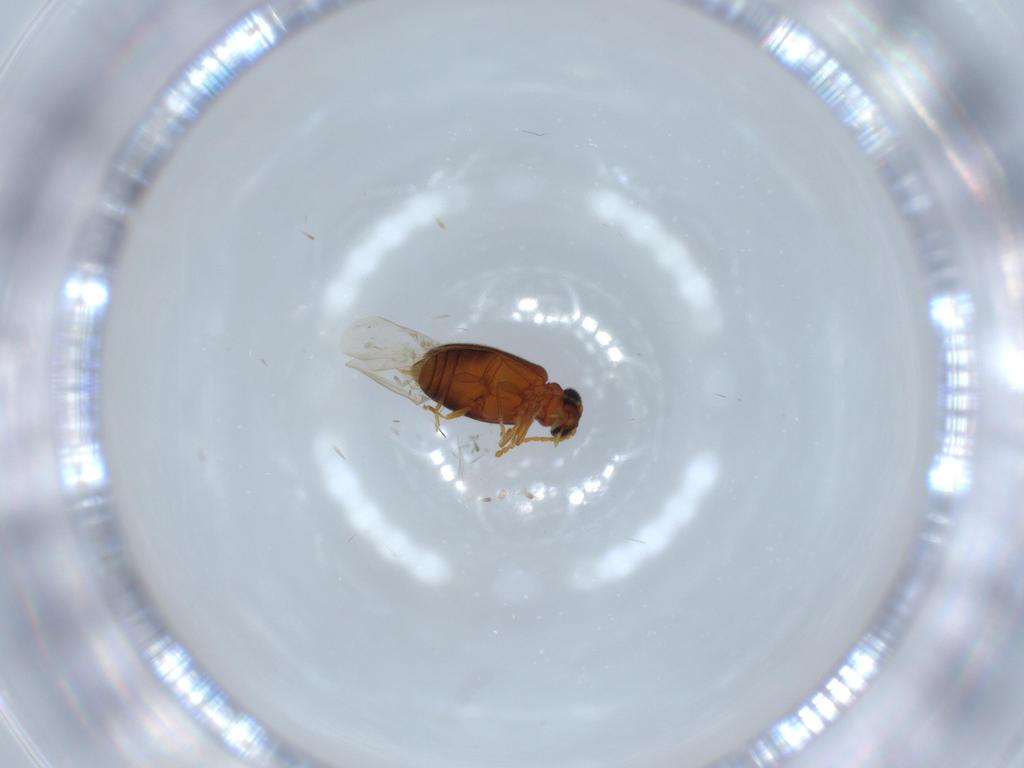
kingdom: Animalia
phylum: Arthropoda
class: Insecta
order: Coleoptera
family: Aderidae
